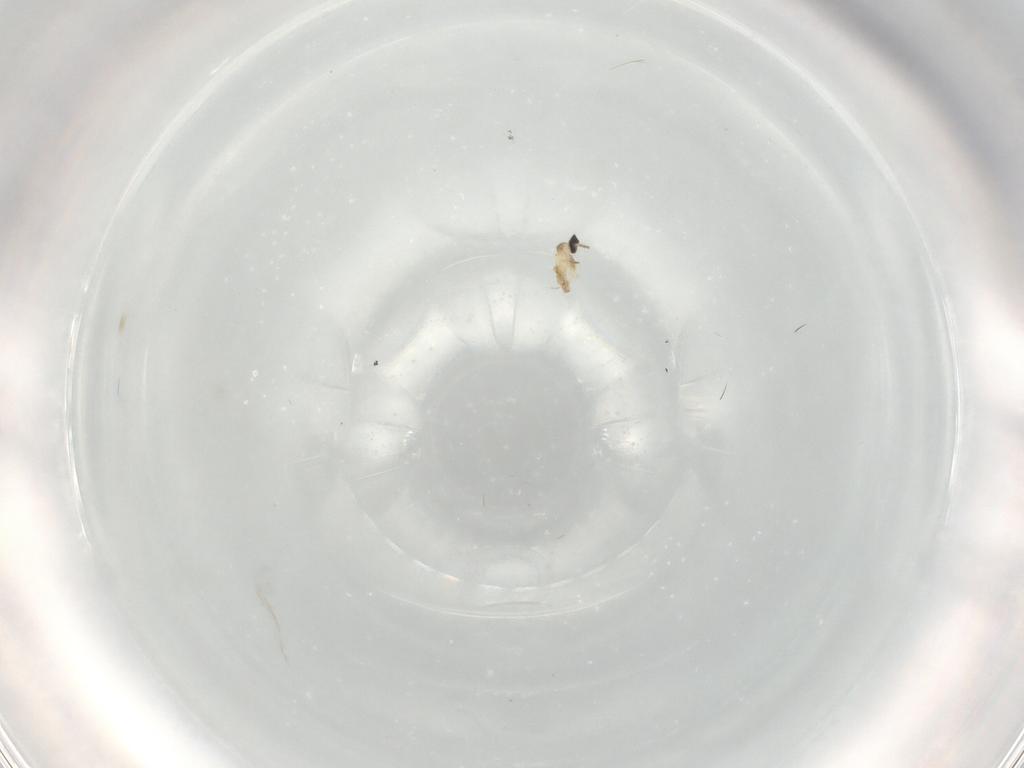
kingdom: Animalia
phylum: Arthropoda
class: Insecta
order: Diptera
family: Cecidomyiidae
